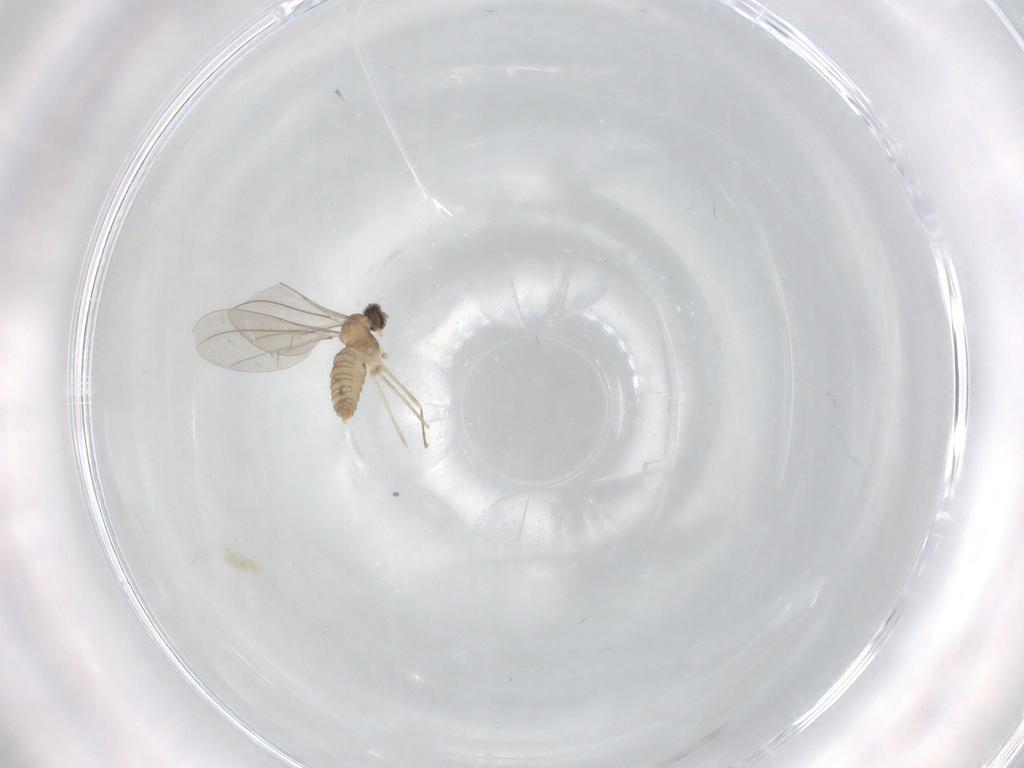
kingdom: Animalia
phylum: Arthropoda
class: Insecta
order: Diptera
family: Cecidomyiidae
